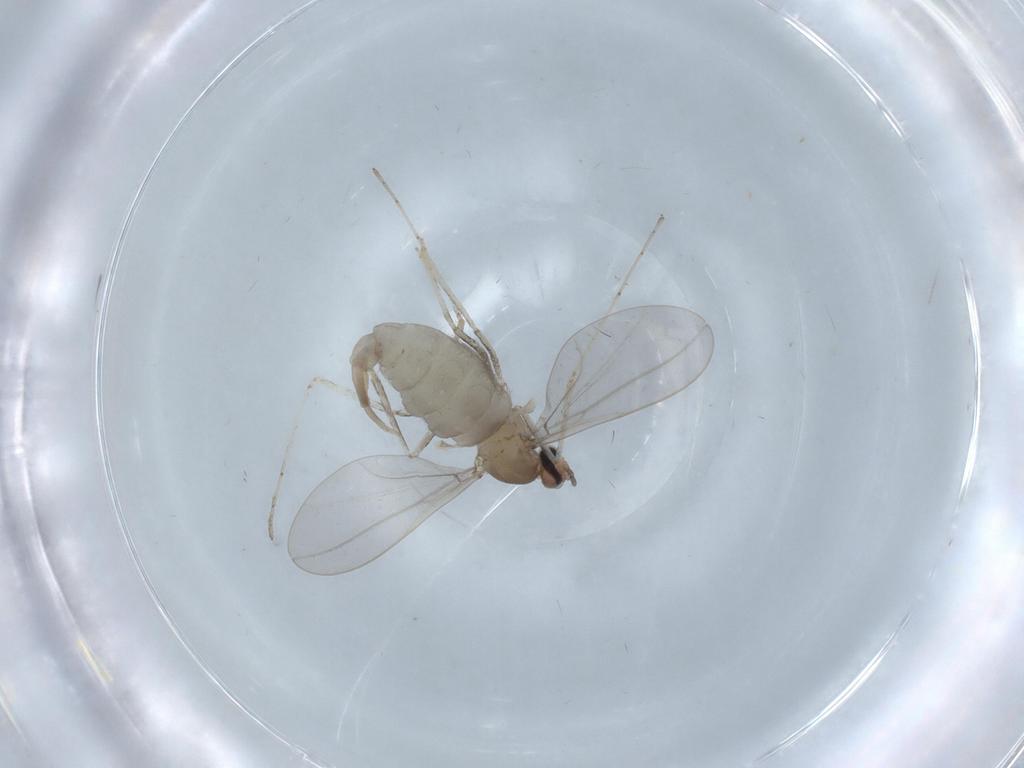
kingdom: Animalia
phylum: Arthropoda
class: Insecta
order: Diptera
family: Cecidomyiidae
